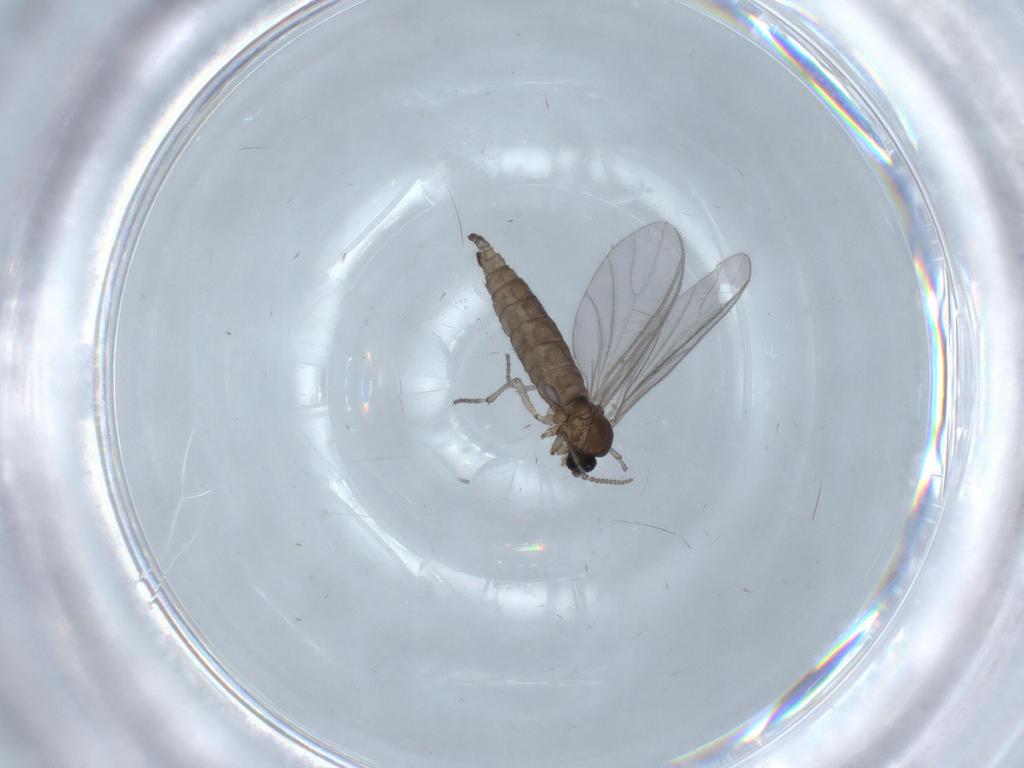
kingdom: Animalia
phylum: Arthropoda
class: Insecta
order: Diptera
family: Sciaridae
